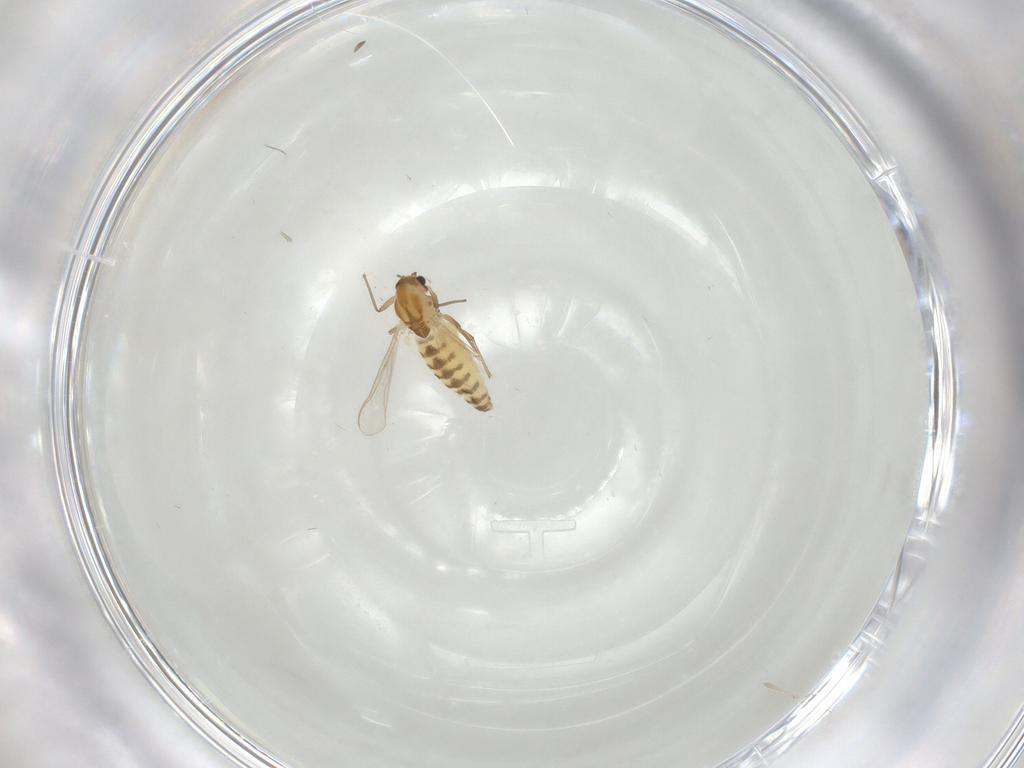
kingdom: Animalia
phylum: Arthropoda
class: Insecta
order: Diptera
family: Chironomidae
